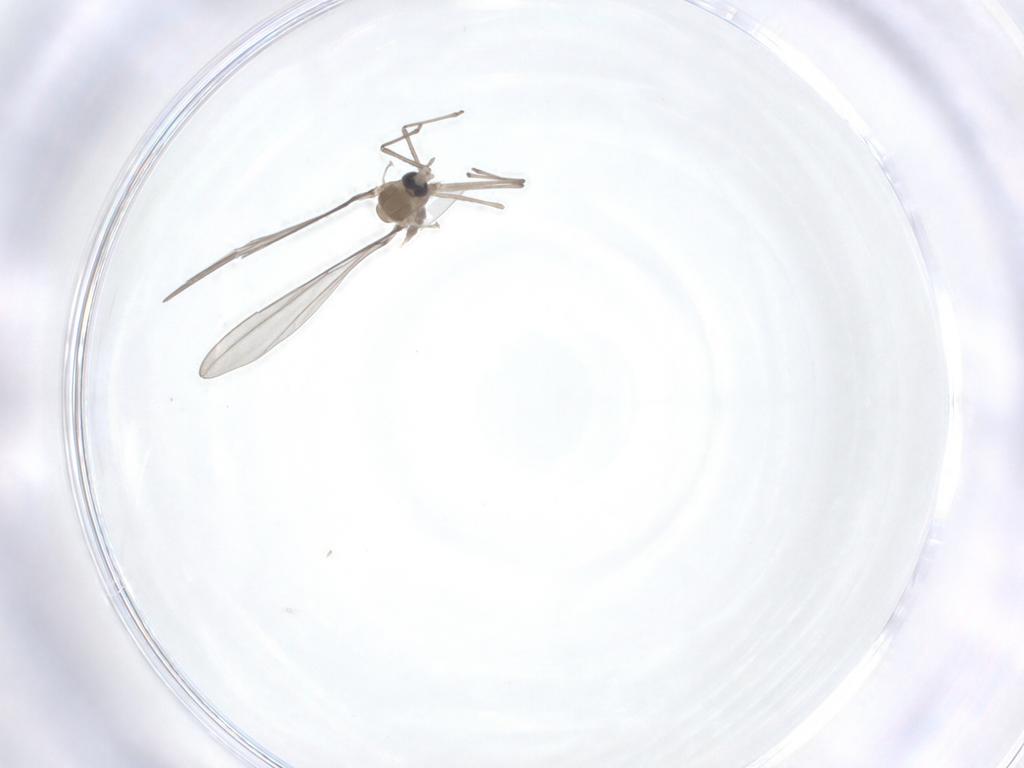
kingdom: Animalia
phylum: Arthropoda
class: Insecta
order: Diptera
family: Cecidomyiidae
